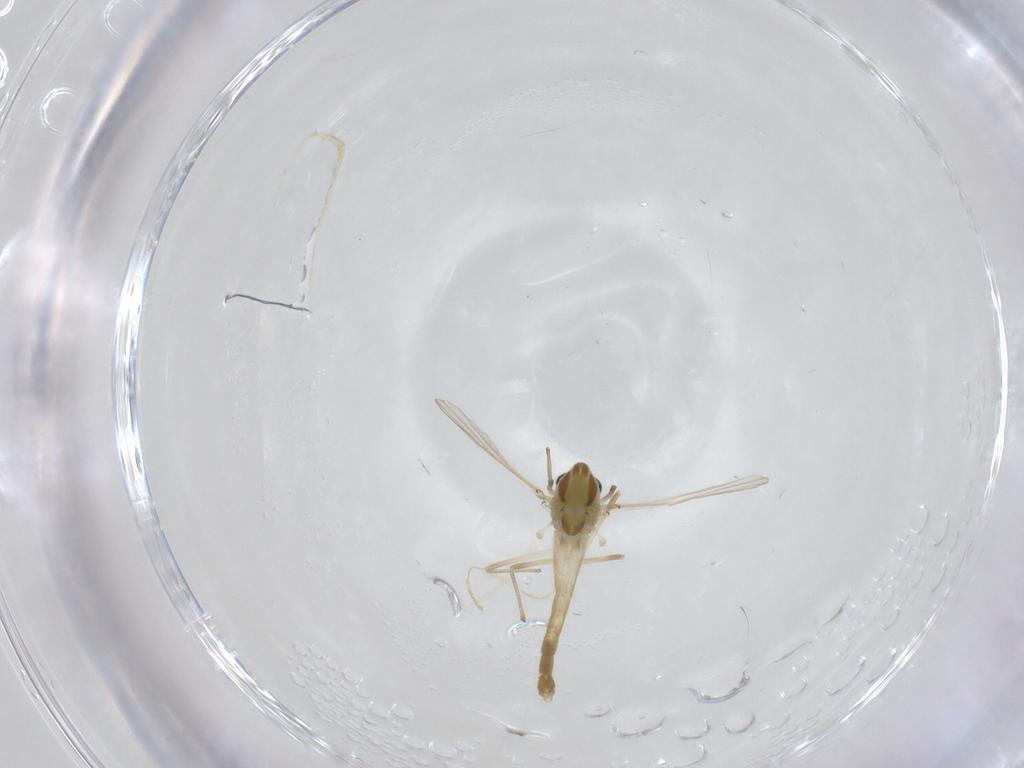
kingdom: Animalia
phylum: Arthropoda
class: Insecta
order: Diptera
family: Chironomidae
